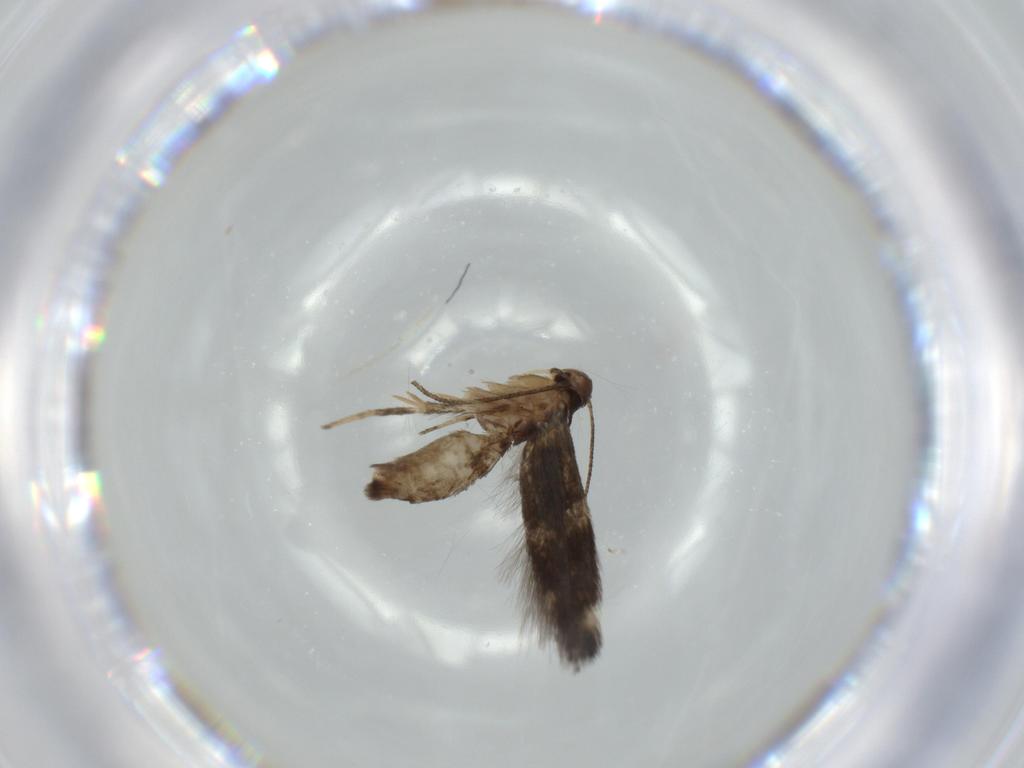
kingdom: Animalia
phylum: Arthropoda
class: Insecta
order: Lepidoptera
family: Cosmopterigidae
